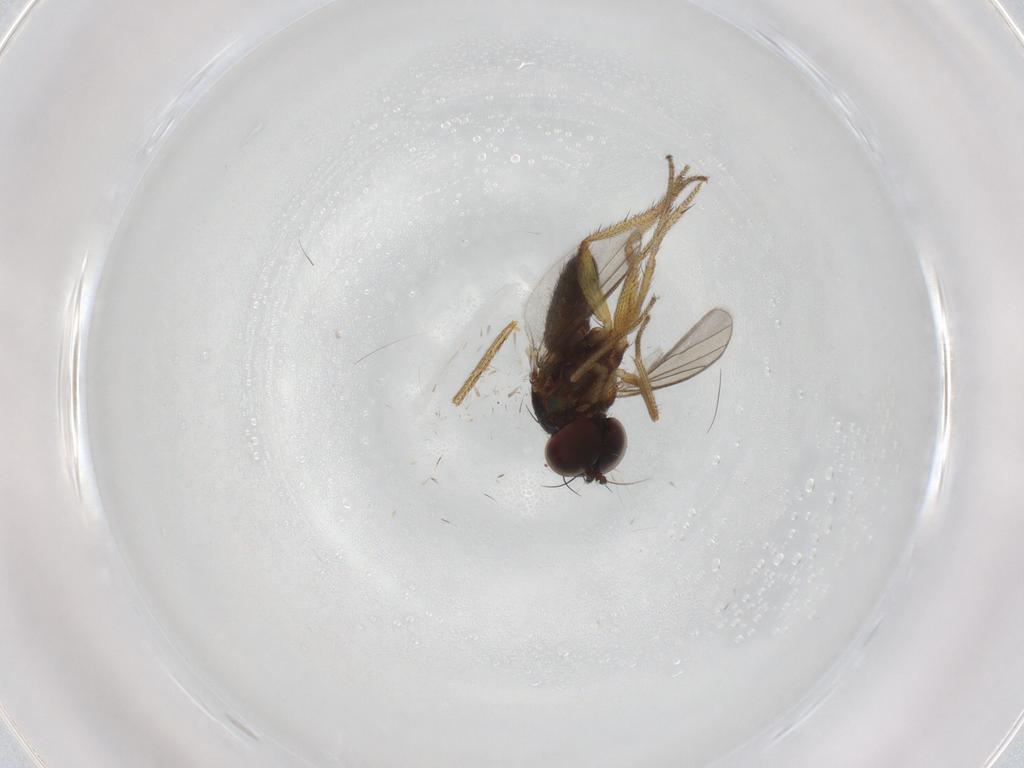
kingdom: Animalia
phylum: Arthropoda
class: Insecta
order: Diptera
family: Dolichopodidae
